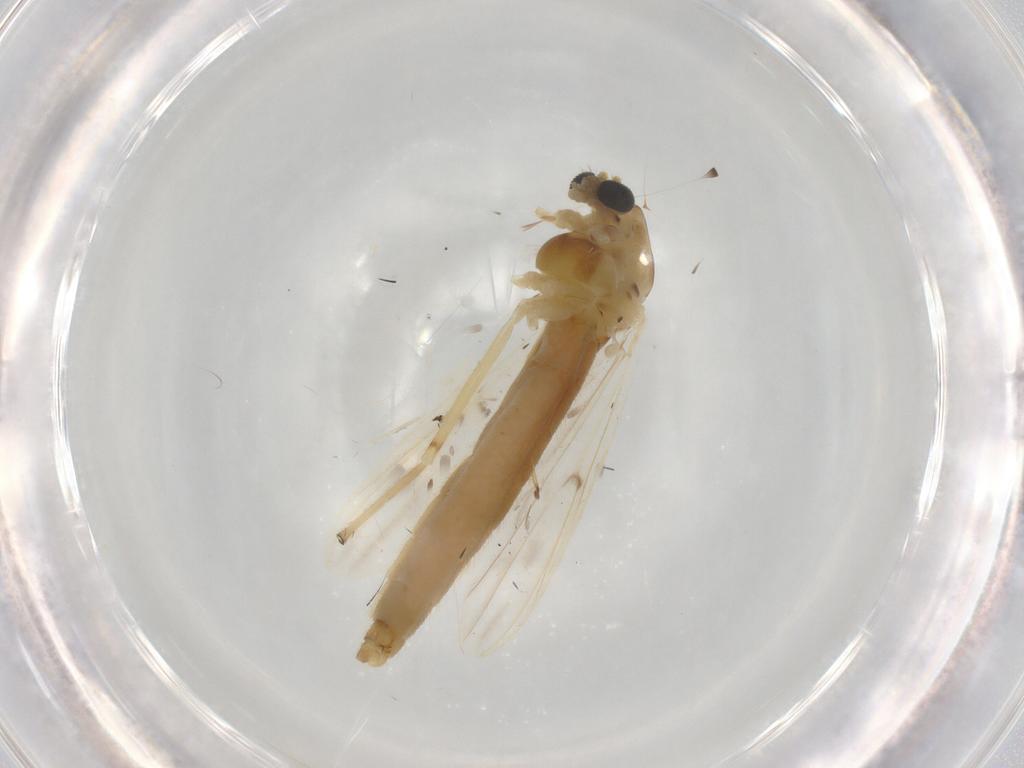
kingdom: Animalia
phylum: Arthropoda
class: Insecta
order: Diptera
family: Chironomidae
